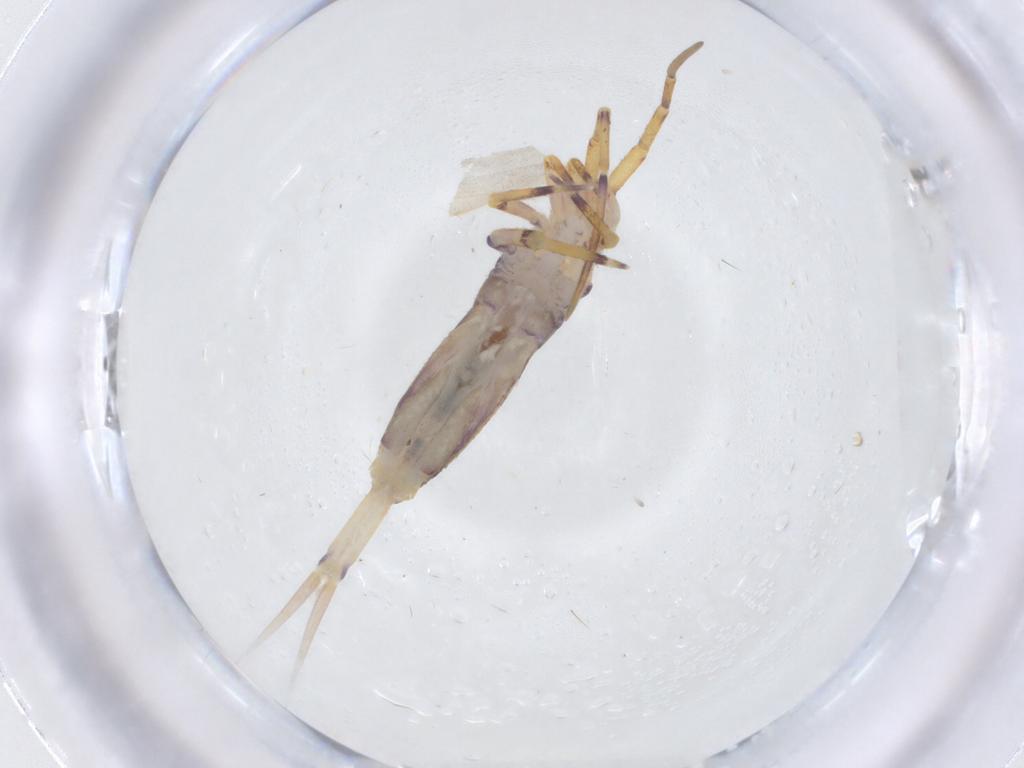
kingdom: Animalia
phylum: Arthropoda
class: Collembola
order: Entomobryomorpha
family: Entomobryidae
